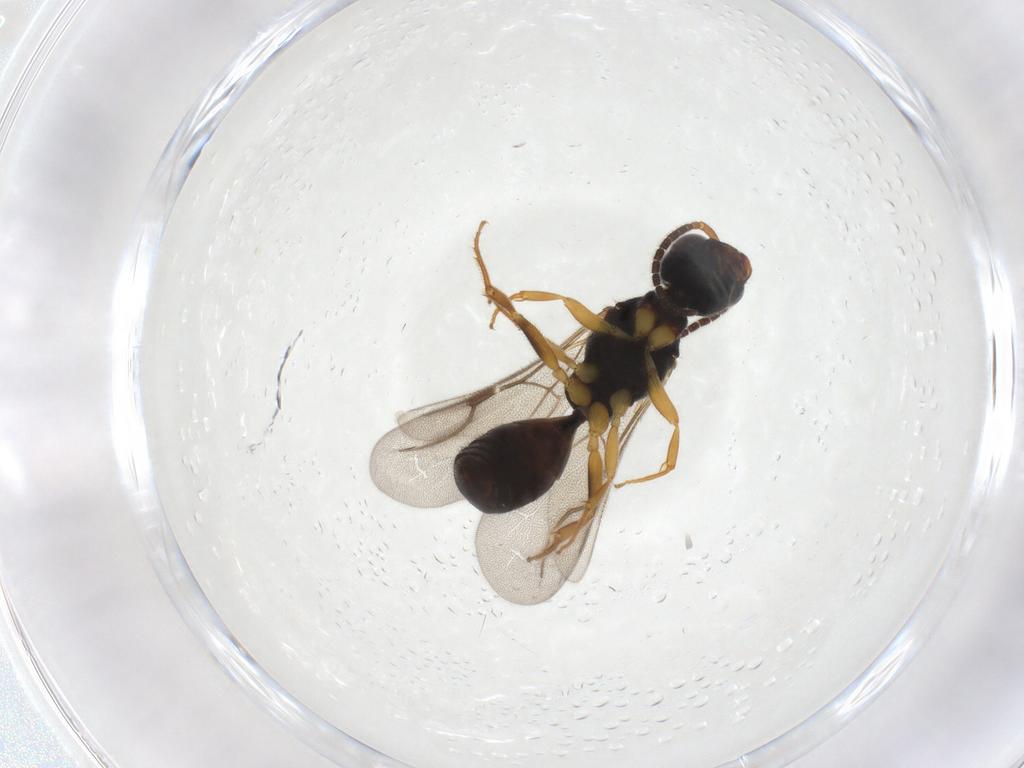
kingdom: Animalia
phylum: Arthropoda
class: Insecta
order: Hymenoptera
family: Bethylidae
